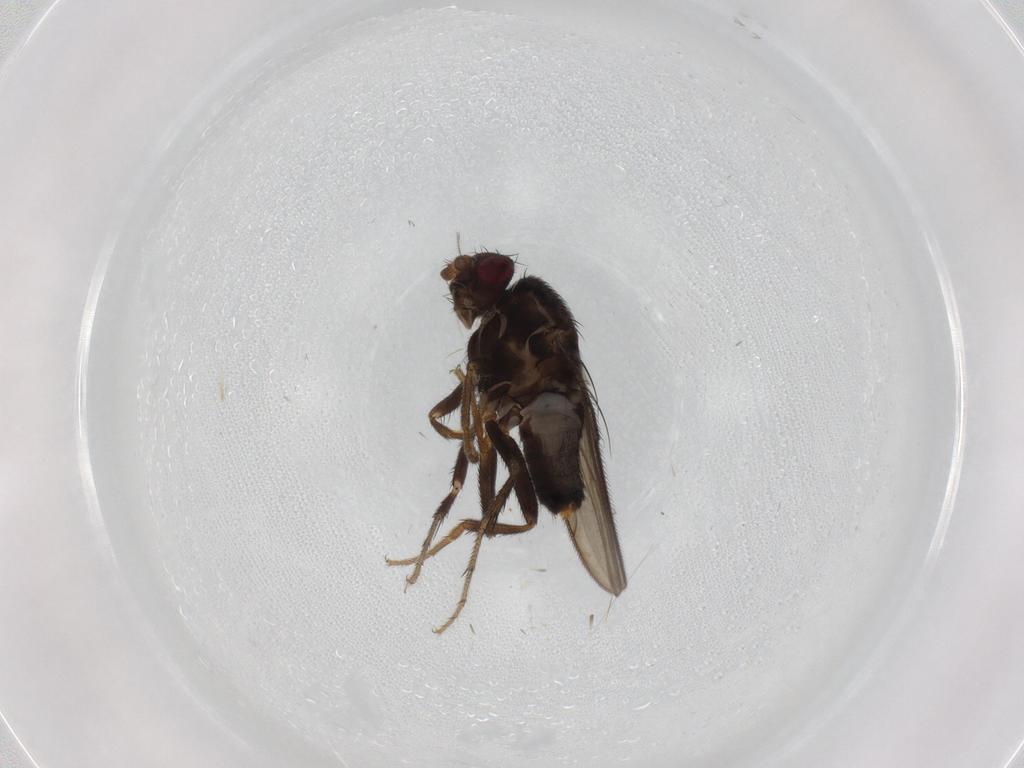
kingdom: Animalia
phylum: Arthropoda
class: Insecta
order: Diptera
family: Sphaeroceridae
